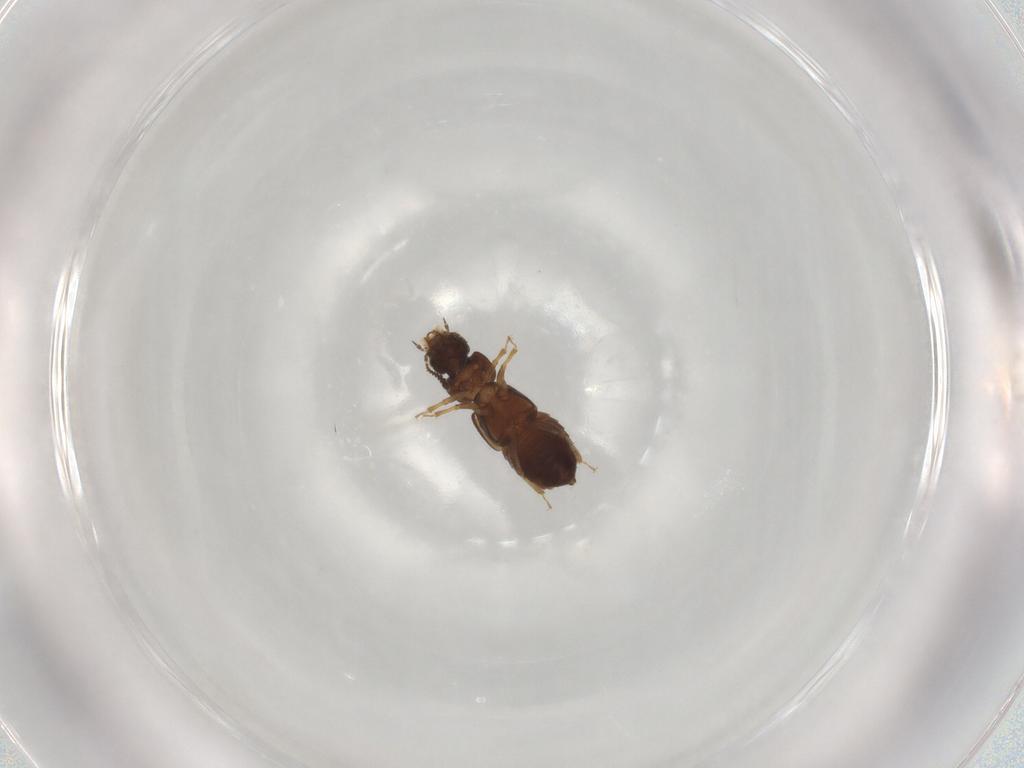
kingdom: Animalia
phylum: Arthropoda
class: Insecta
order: Coleoptera
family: Staphylinidae
